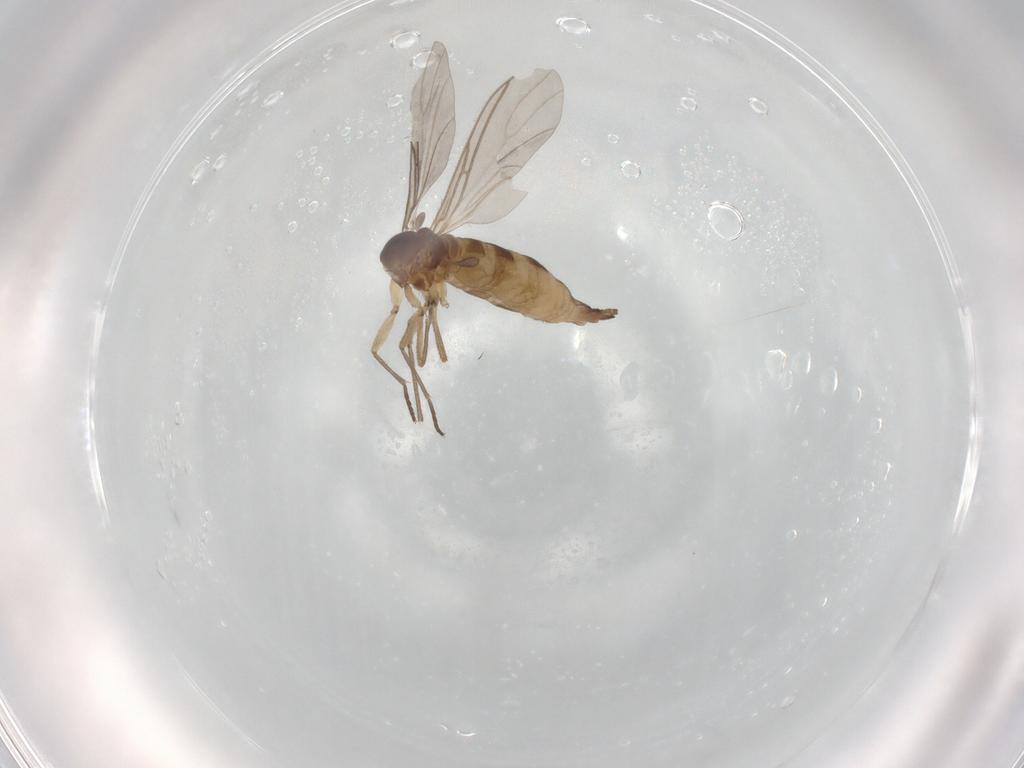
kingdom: Animalia
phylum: Arthropoda
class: Insecta
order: Diptera
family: Sciaridae
